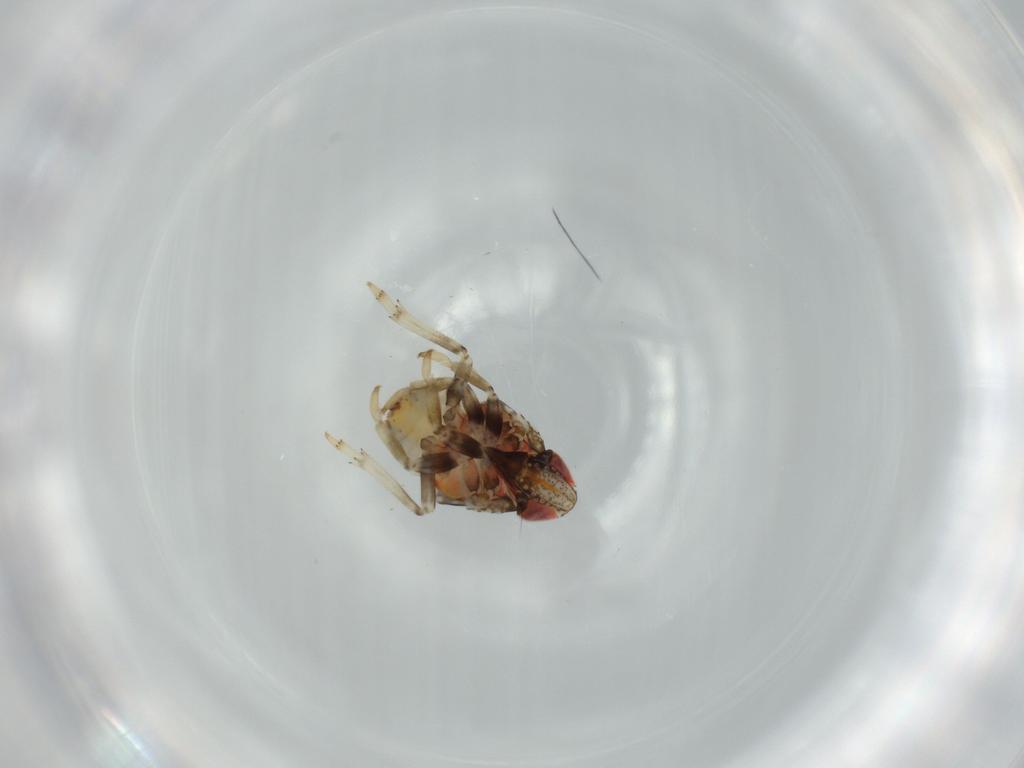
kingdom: Animalia
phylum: Arthropoda
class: Insecta
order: Hemiptera
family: Issidae
